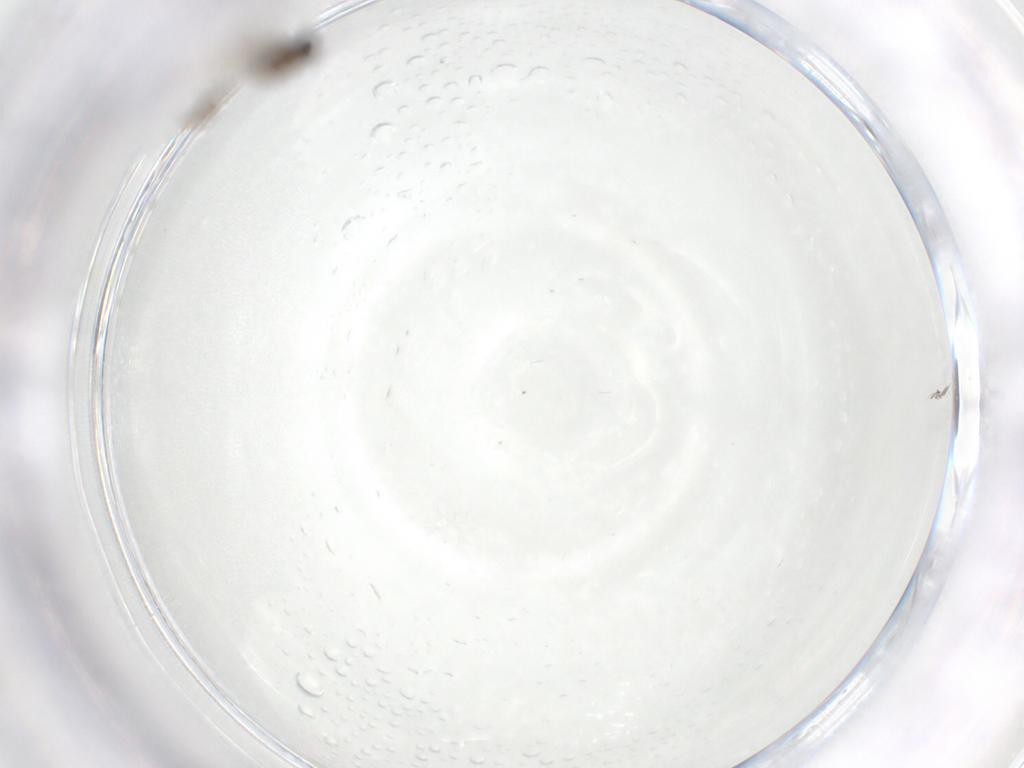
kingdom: Animalia
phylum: Arthropoda
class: Insecta
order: Diptera
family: Cecidomyiidae
